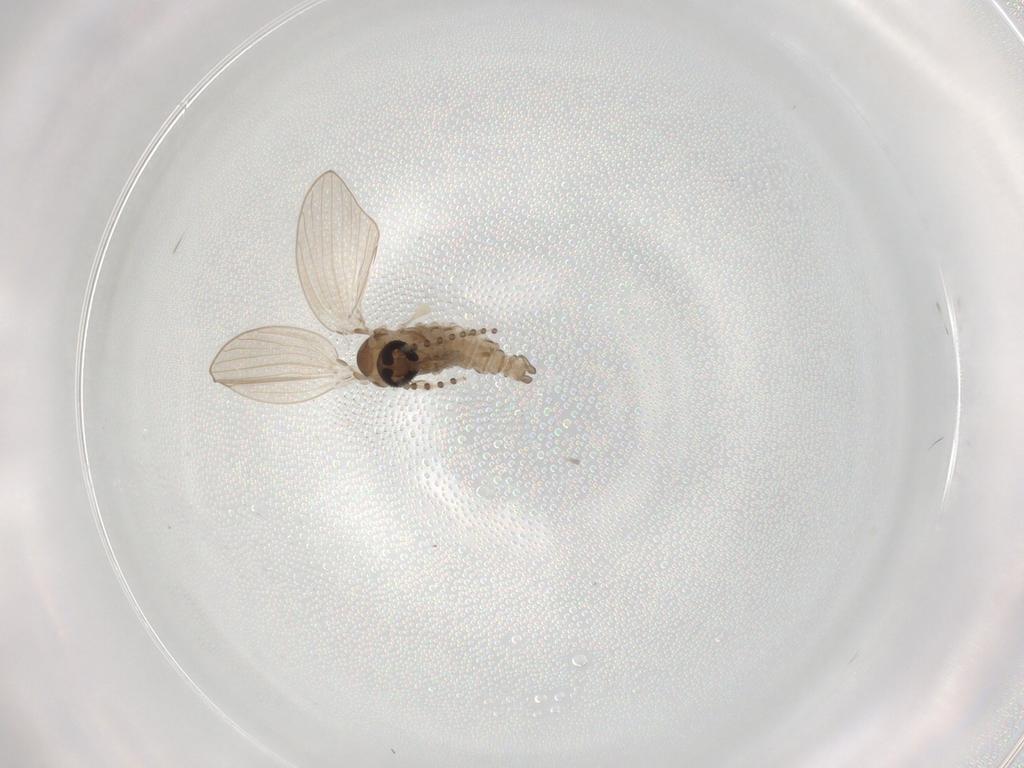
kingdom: Animalia
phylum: Arthropoda
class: Insecta
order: Diptera
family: Psychodidae
